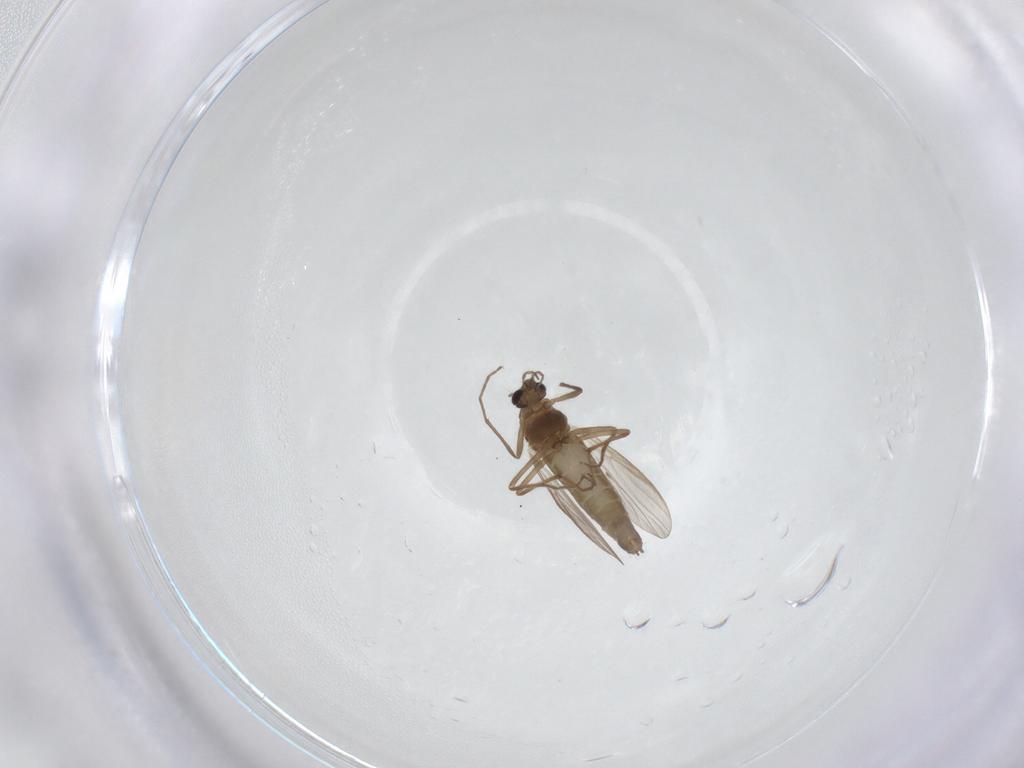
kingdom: Animalia
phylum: Arthropoda
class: Insecta
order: Diptera
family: Chironomidae
